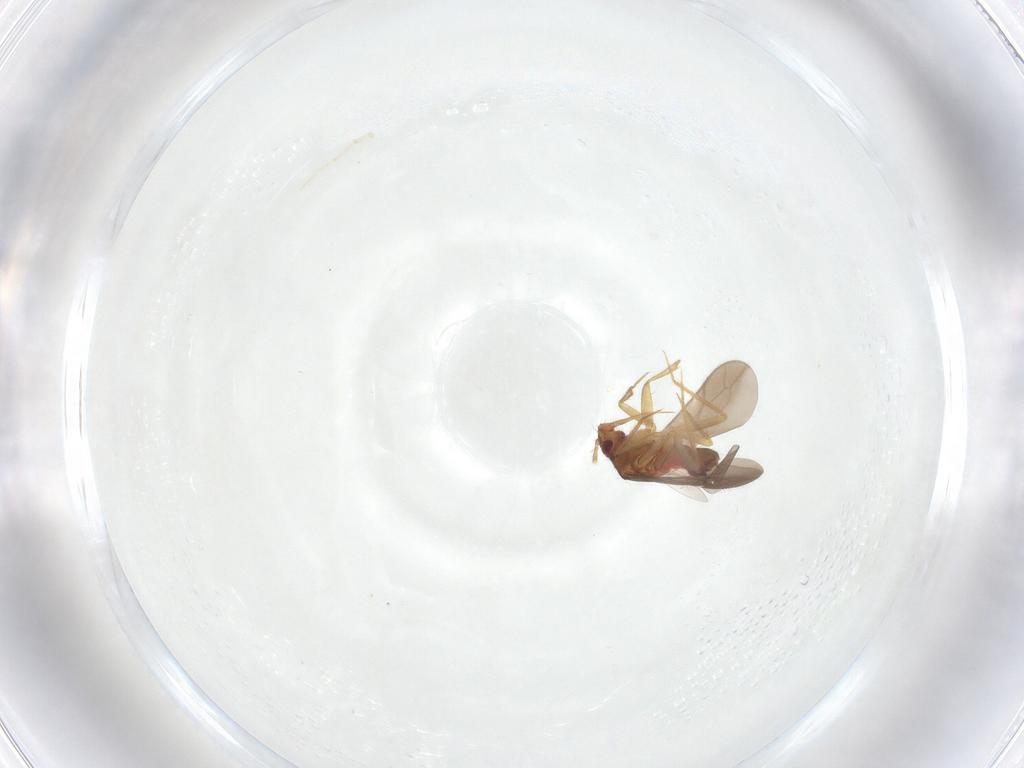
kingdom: Animalia
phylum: Arthropoda
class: Insecta
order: Hemiptera
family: Ceratocombidae
